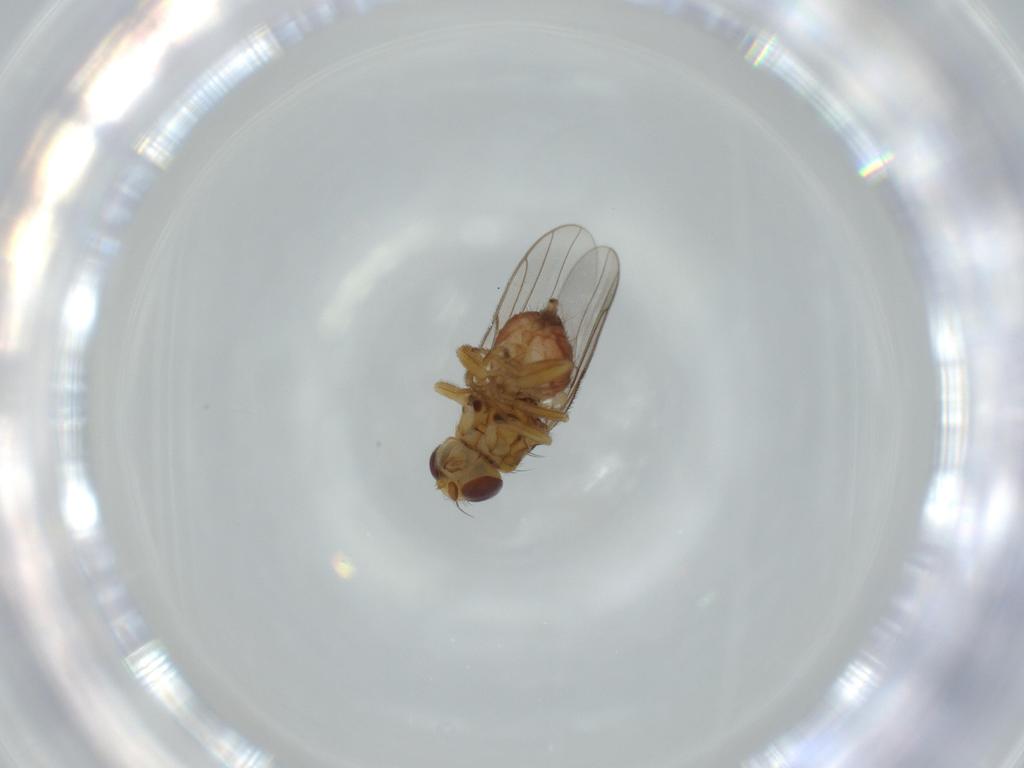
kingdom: Animalia
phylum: Arthropoda
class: Insecta
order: Diptera
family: Chloropidae
